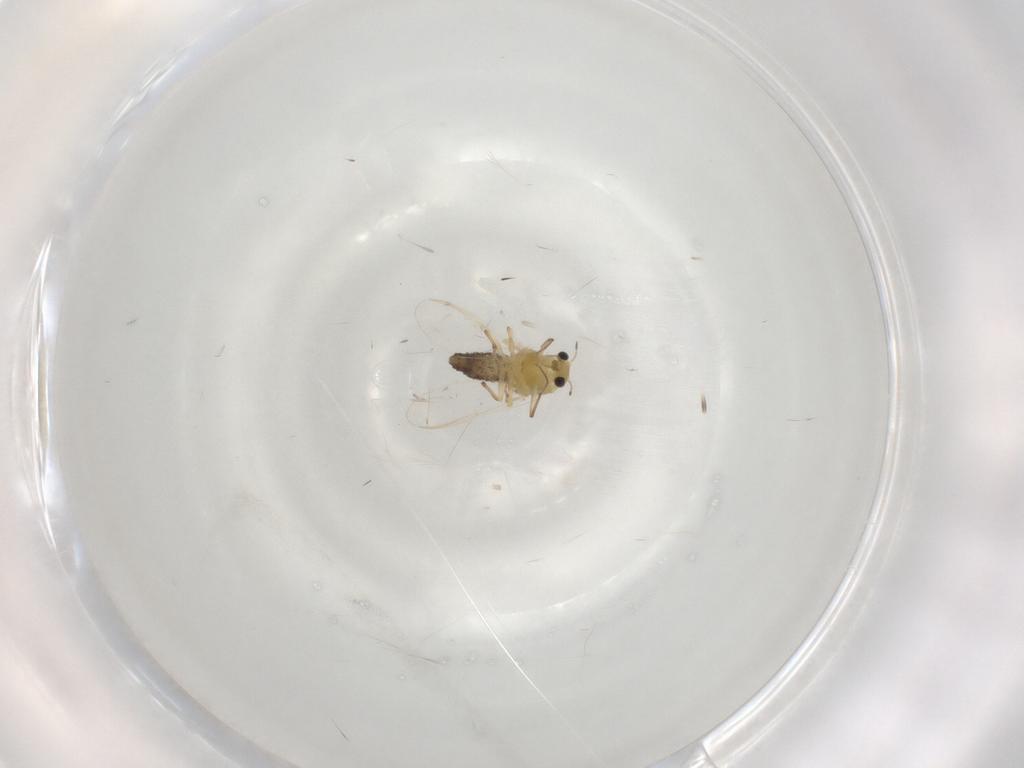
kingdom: Animalia
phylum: Arthropoda
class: Insecta
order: Diptera
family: Chironomidae
